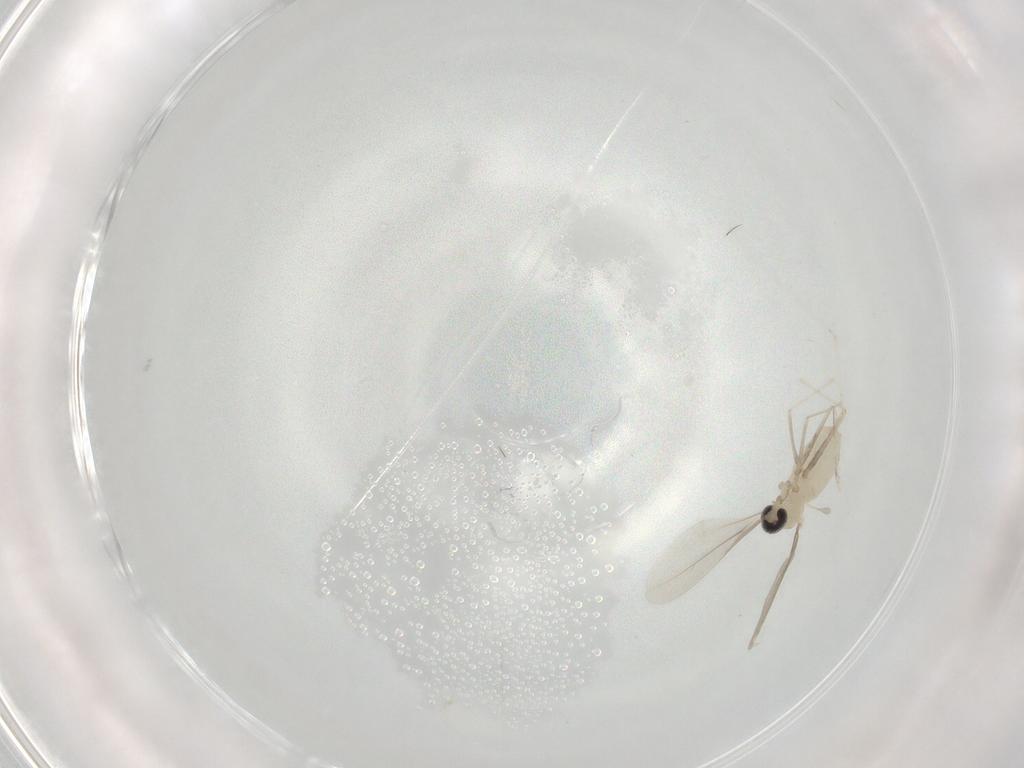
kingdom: Animalia
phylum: Arthropoda
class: Insecta
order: Diptera
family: Cecidomyiidae
